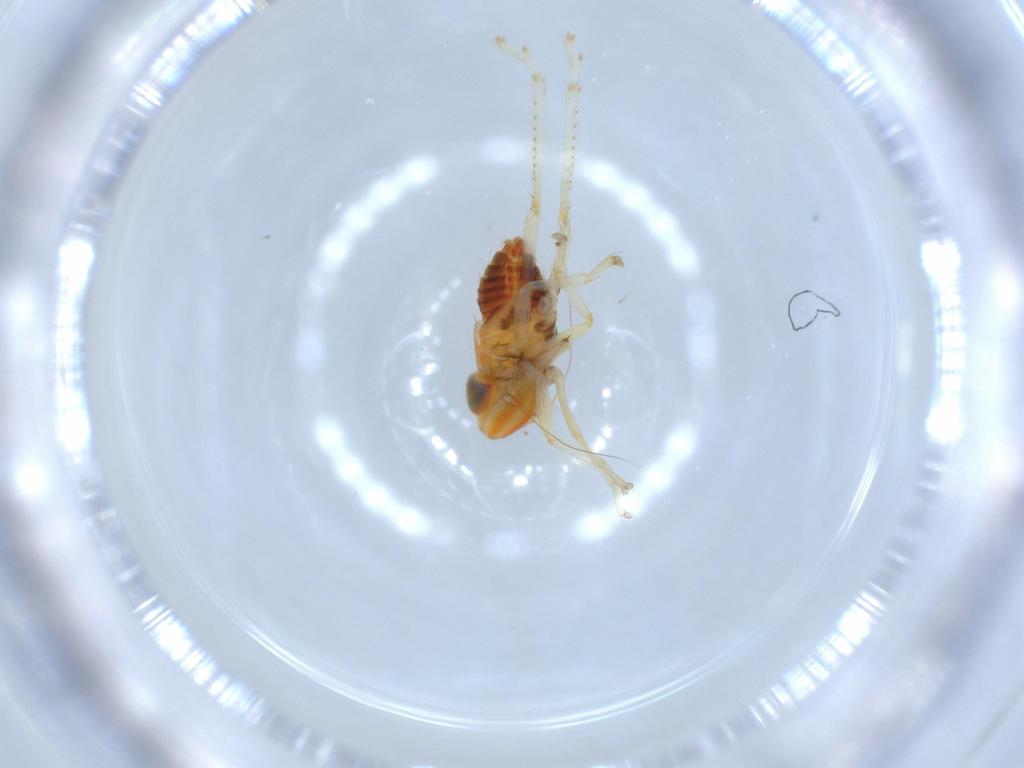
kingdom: Animalia
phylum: Arthropoda
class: Insecta
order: Hemiptera
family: Cicadellidae
